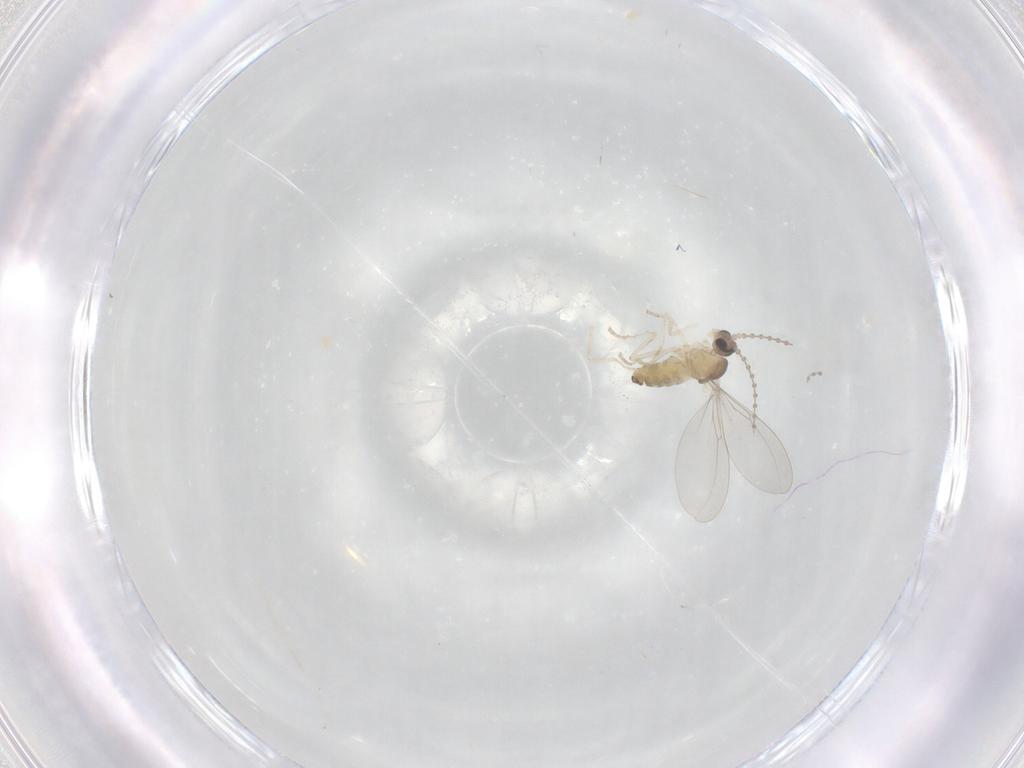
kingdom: Animalia
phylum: Arthropoda
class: Insecta
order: Diptera
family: Cecidomyiidae
